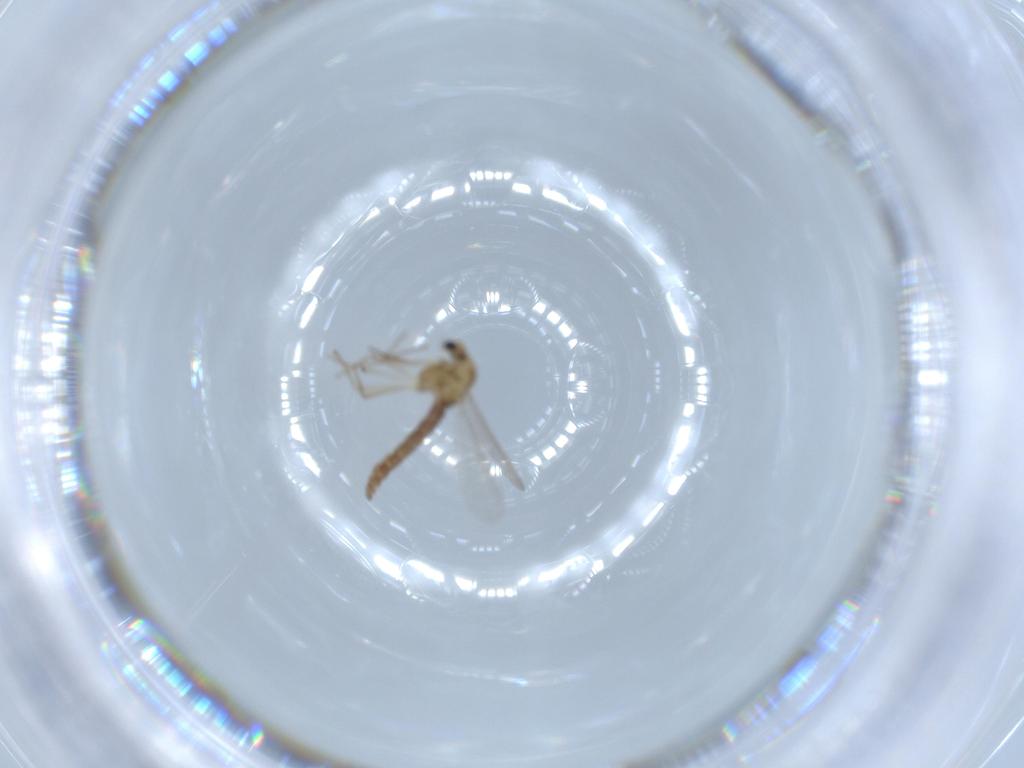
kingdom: Animalia
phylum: Arthropoda
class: Insecta
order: Diptera
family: Chironomidae
